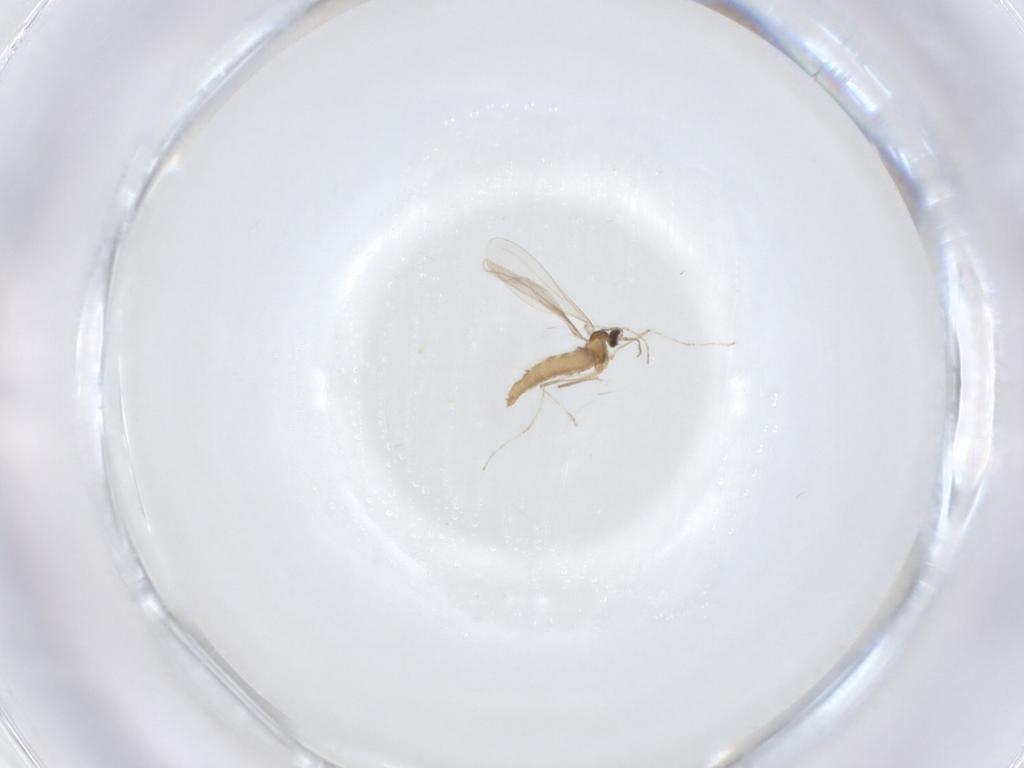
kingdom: Animalia
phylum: Arthropoda
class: Insecta
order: Diptera
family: Cecidomyiidae
